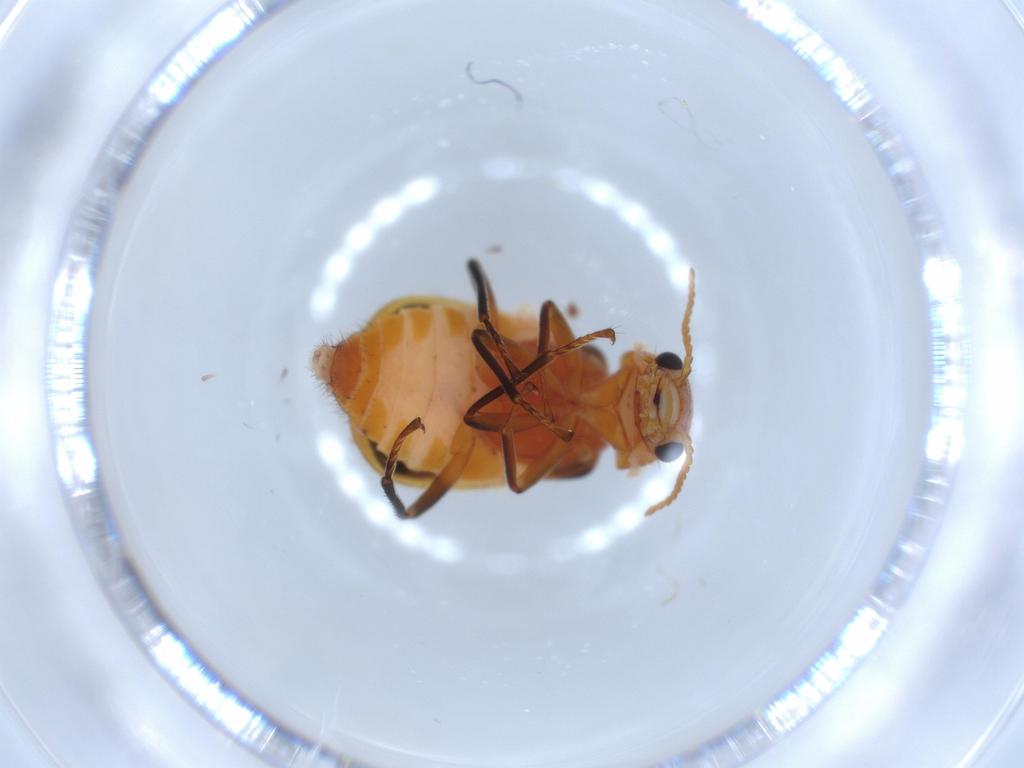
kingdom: Animalia
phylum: Arthropoda
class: Insecta
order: Coleoptera
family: Melyridae
